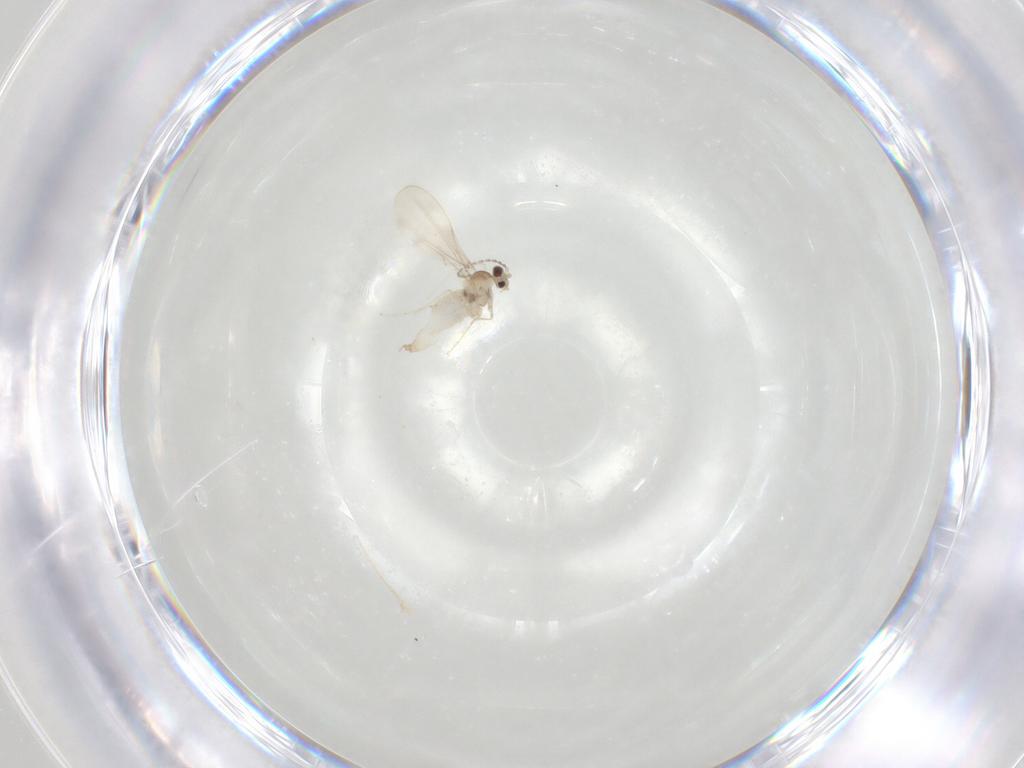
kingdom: Animalia
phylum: Arthropoda
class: Insecta
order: Diptera
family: Cecidomyiidae
